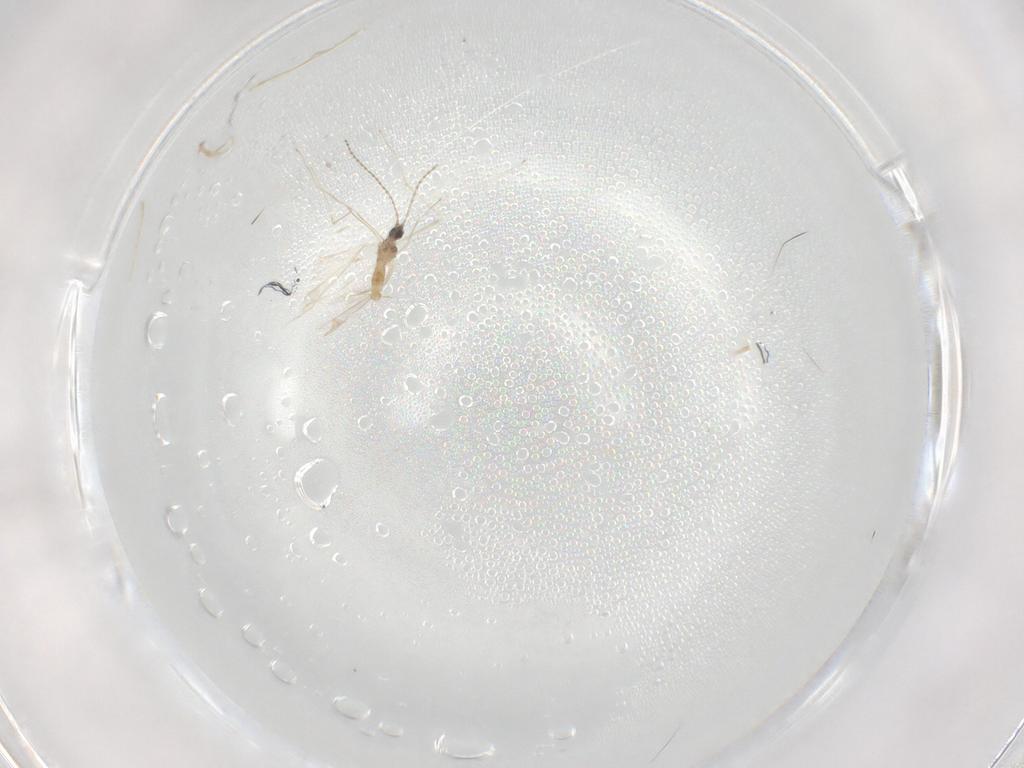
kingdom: Animalia
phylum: Arthropoda
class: Insecta
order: Diptera
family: Cecidomyiidae
